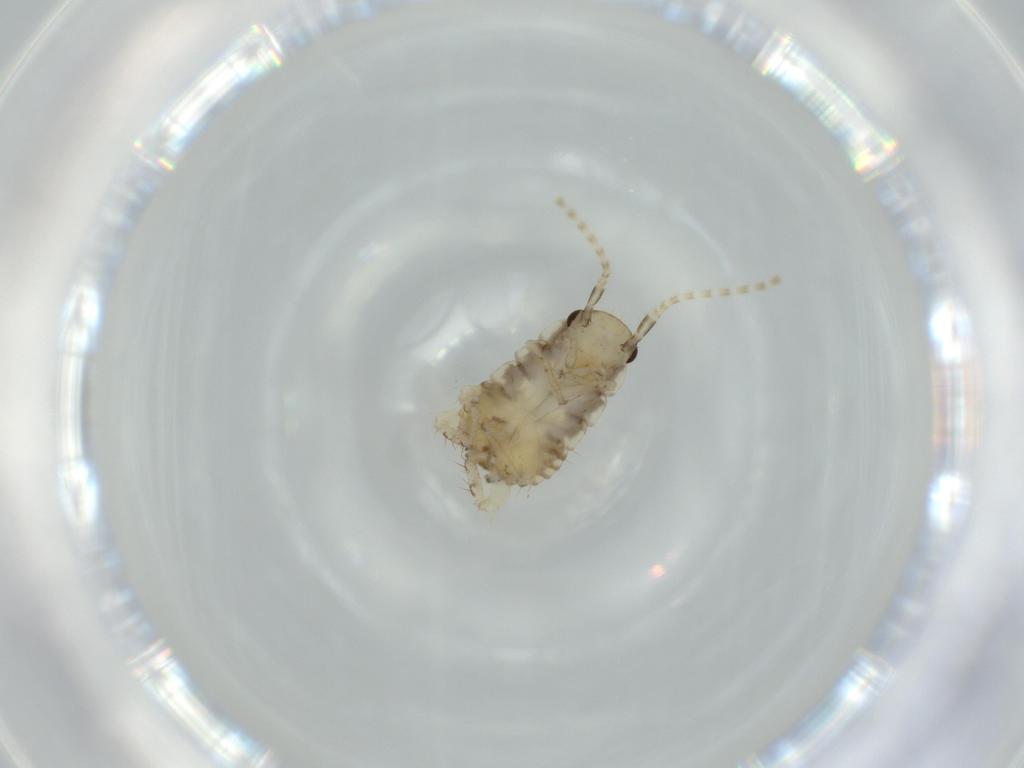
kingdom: Animalia
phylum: Arthropoda
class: Insecta
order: Blattodea
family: Ectobiidae
